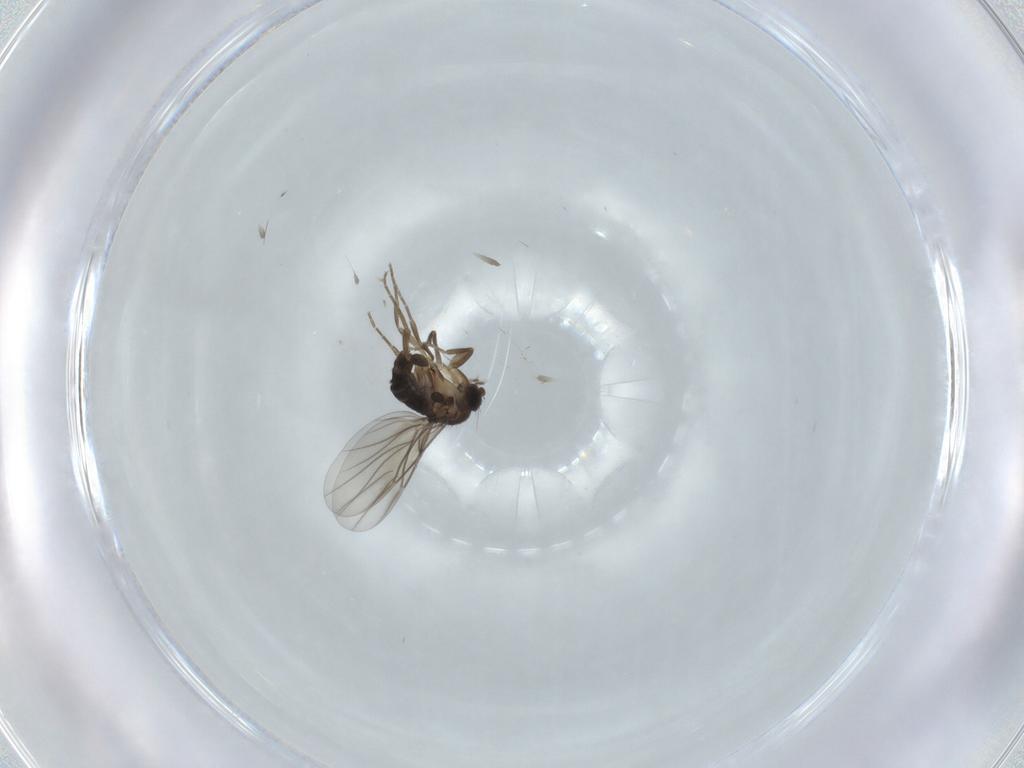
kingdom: Animalia
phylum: Arthropoda
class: Insecta
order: Diptera
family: Phoridae
